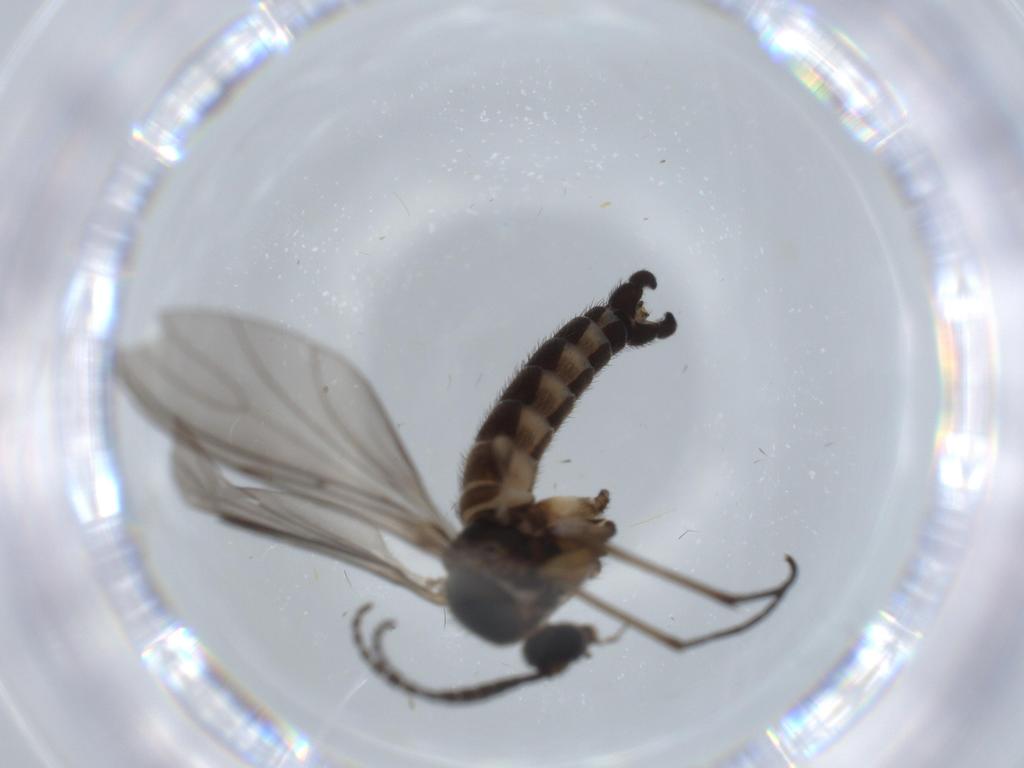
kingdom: Animalia
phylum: Arthropoda
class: Insecta
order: Diptera
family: Sciaridae
